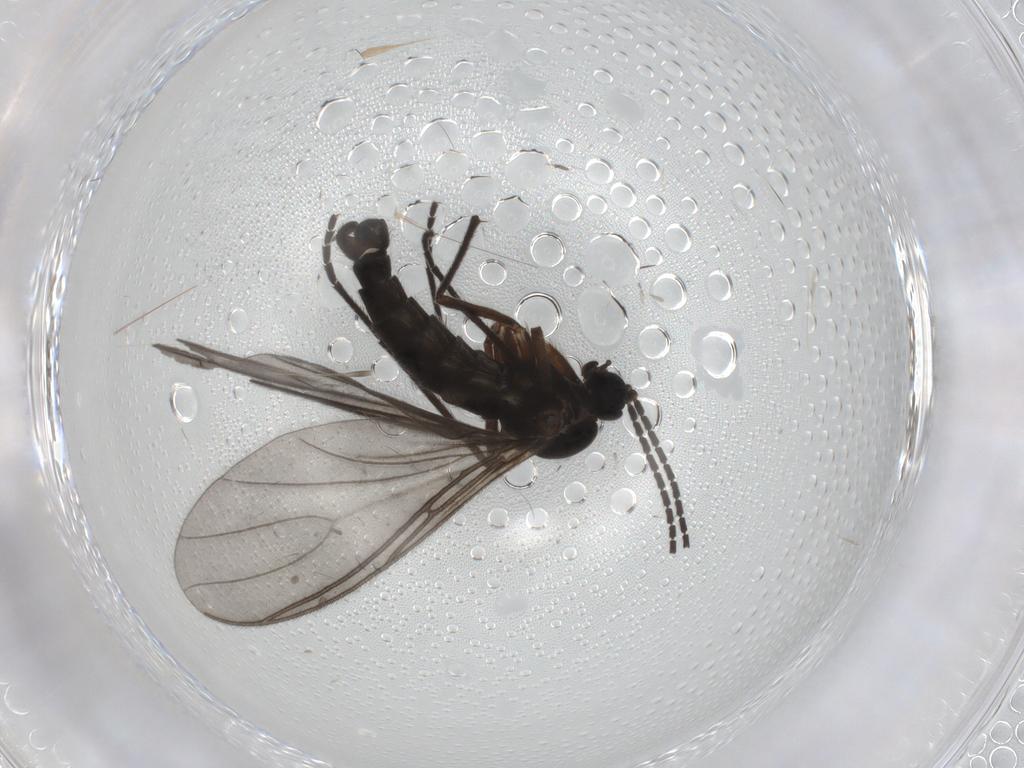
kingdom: Animalia
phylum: Arthropoda
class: Insecta
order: Diptera
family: Sciaridae
